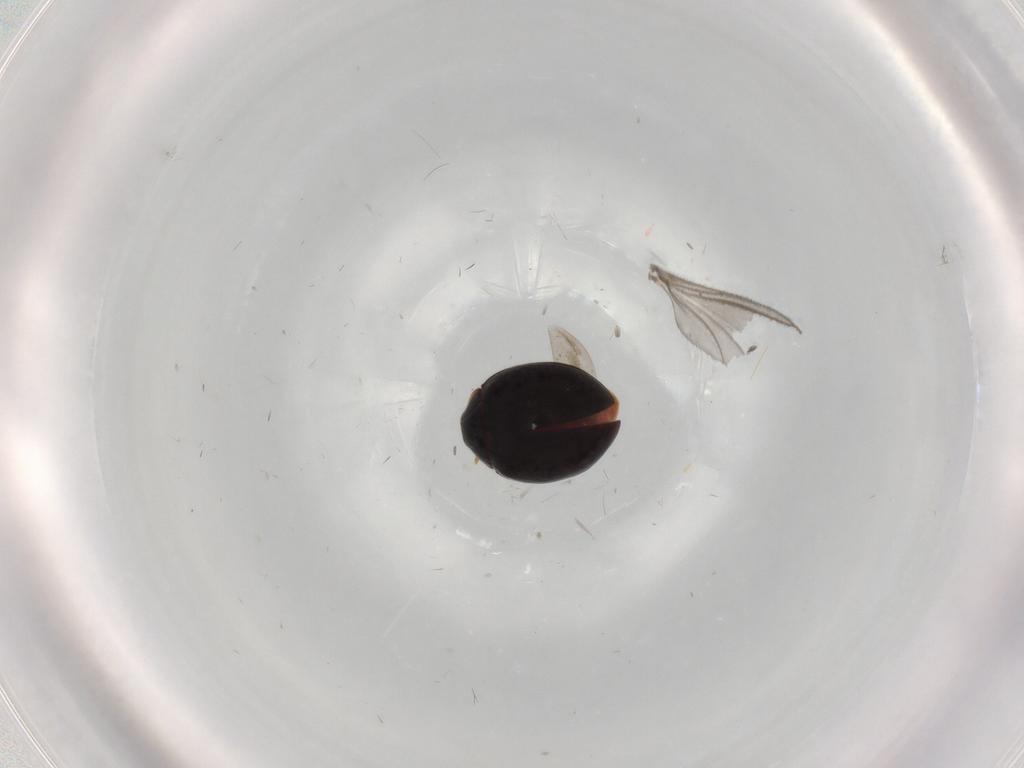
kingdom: Animalia
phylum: Arthropoda
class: Insecta
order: Coleoptera
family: Coccinellidae
